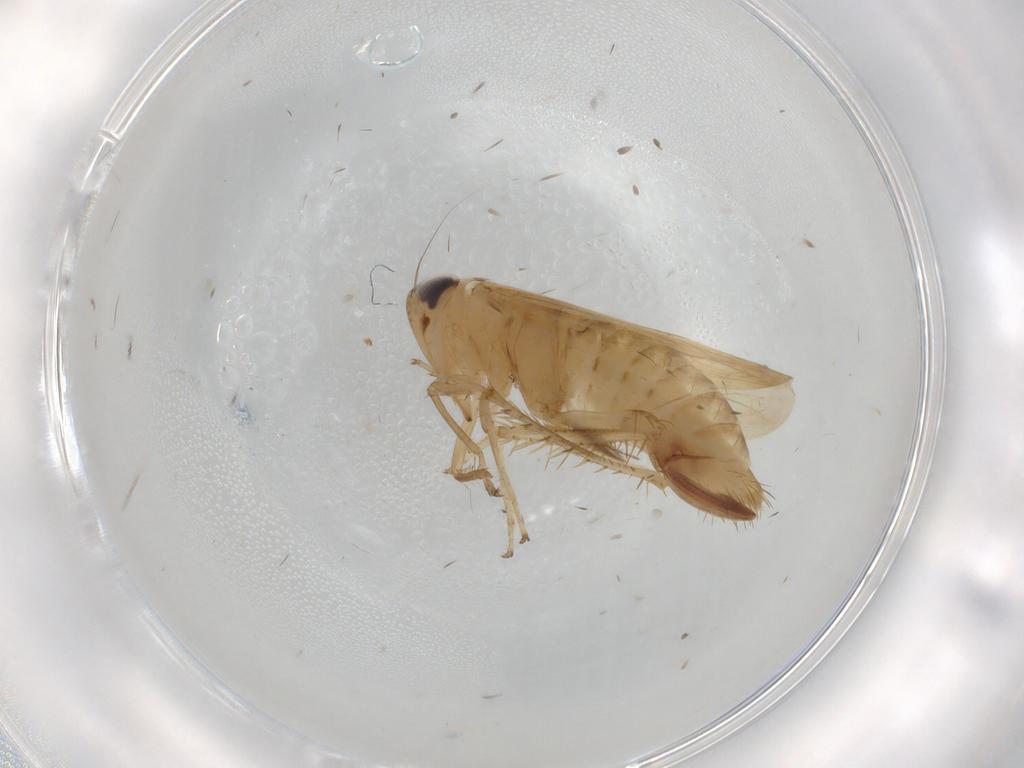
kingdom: Animalia
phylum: Arthropoda
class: Insecta
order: Hemiptera
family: Cicadellidae
